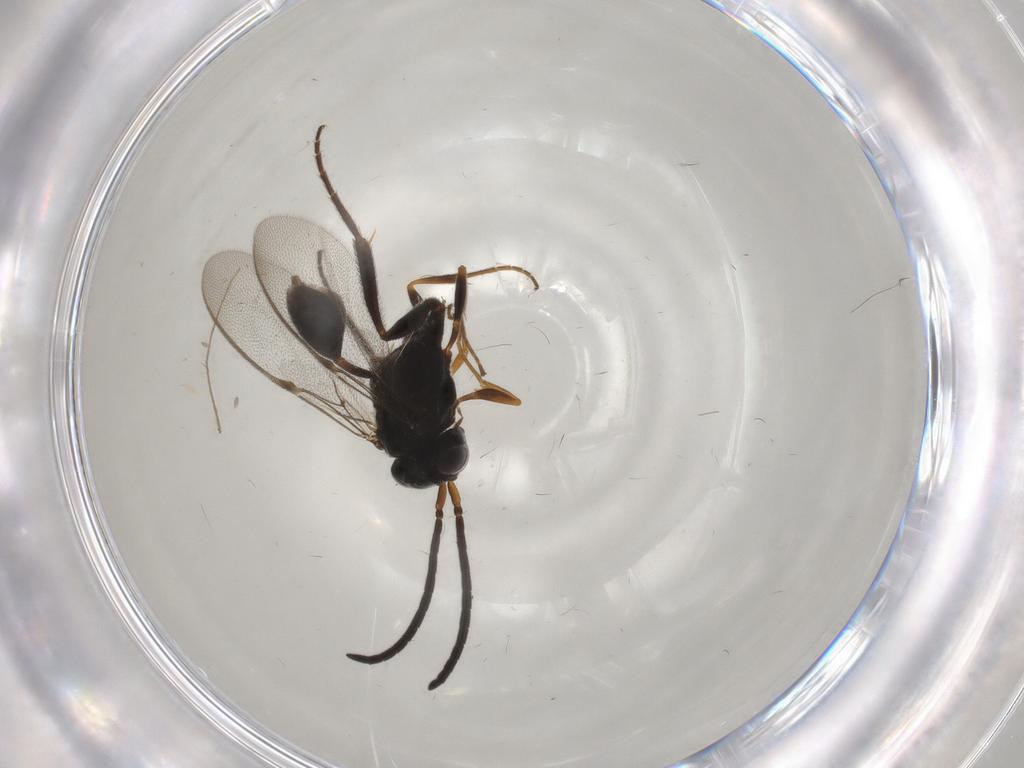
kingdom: Animalia
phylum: Arthropoda
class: Insecta
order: Hymenoptera
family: Evaniidae
